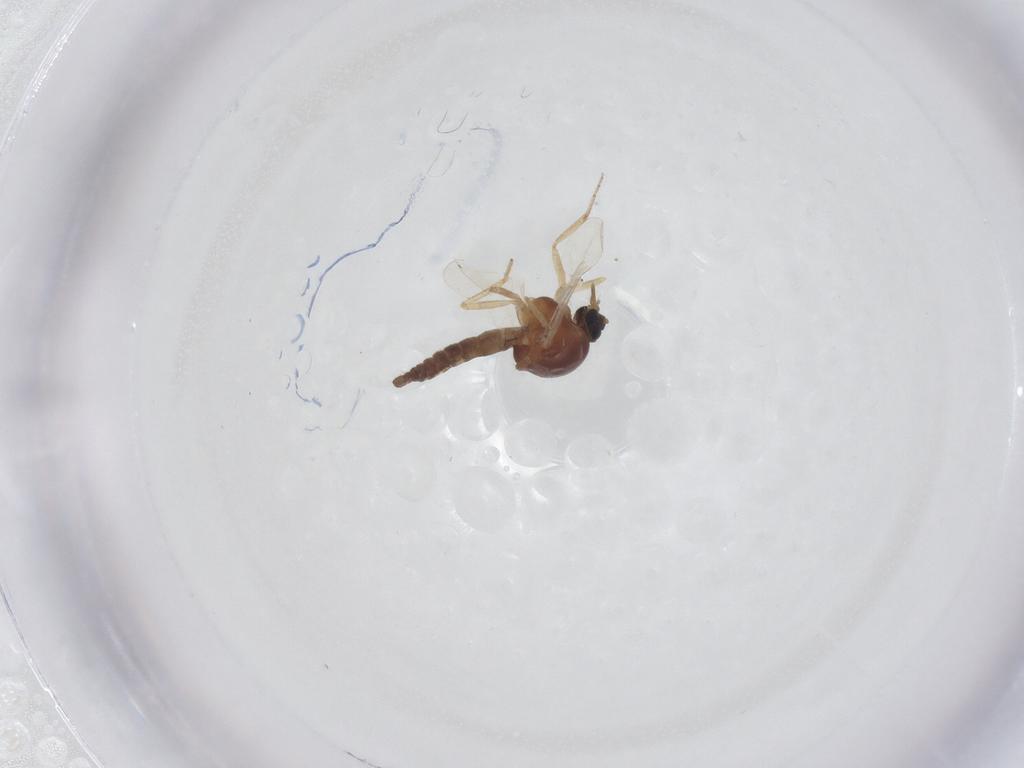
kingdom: Animalia
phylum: Arthropoda
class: Insecta
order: Diptera
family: Ceratopogonidae
